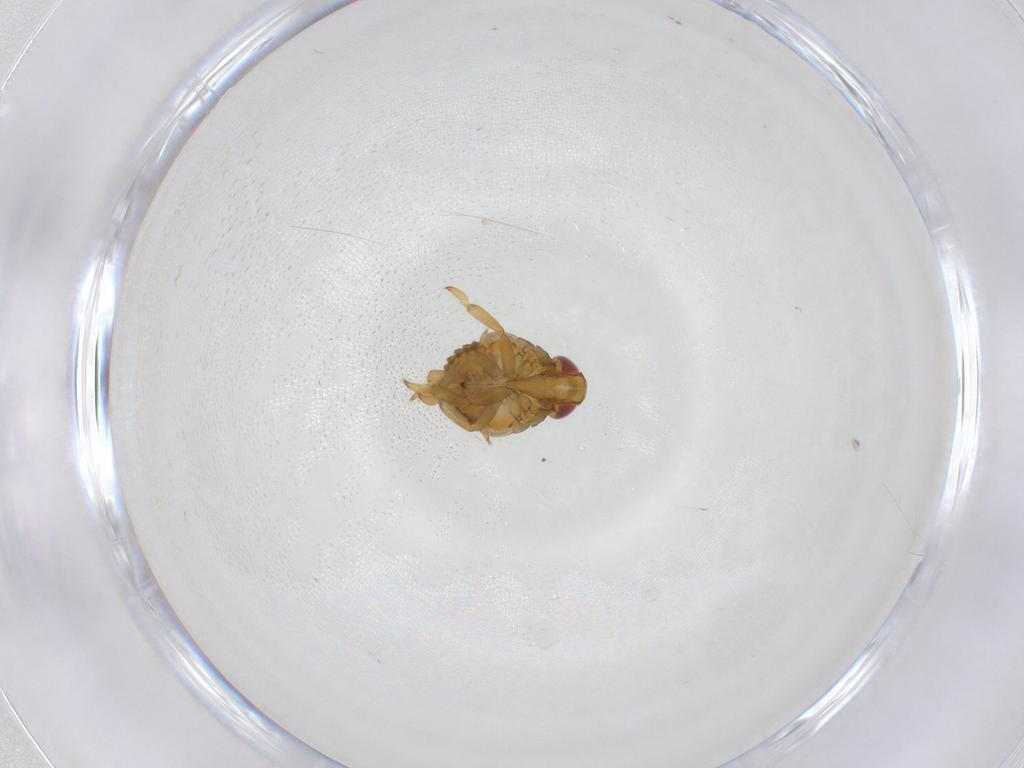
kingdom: Animalia
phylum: Arthropoda
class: Insecta
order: Hemiptera
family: Issidae
